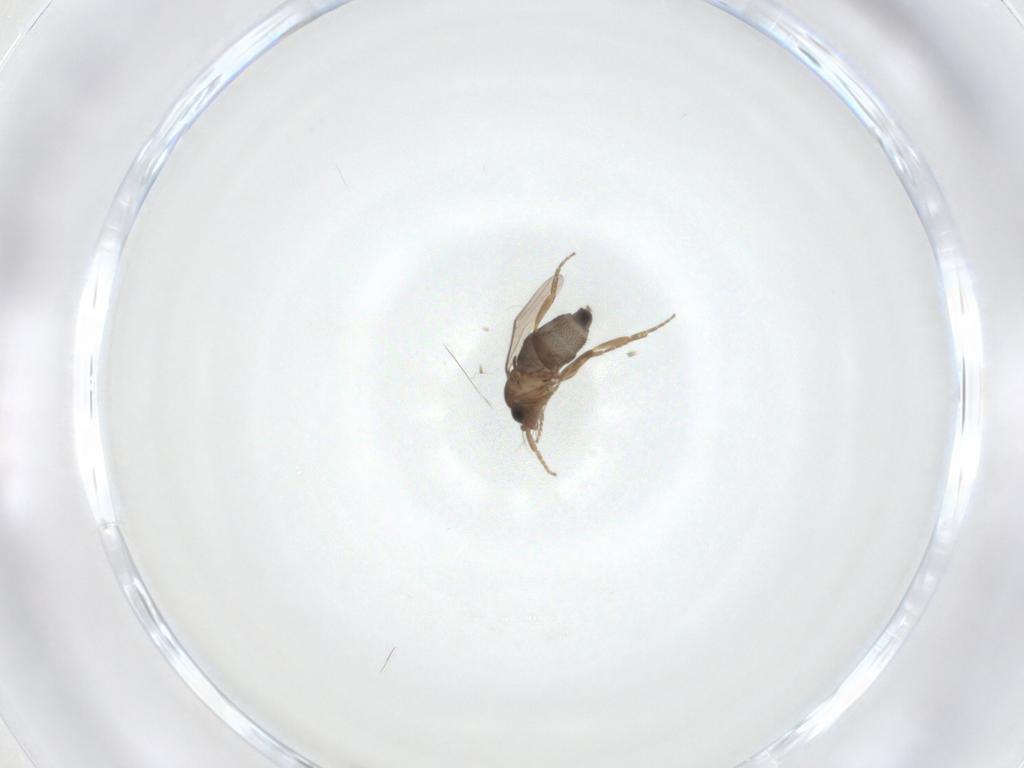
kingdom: Animalia
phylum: Arthropoda
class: Insecta
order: Diptera
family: Phoridae
